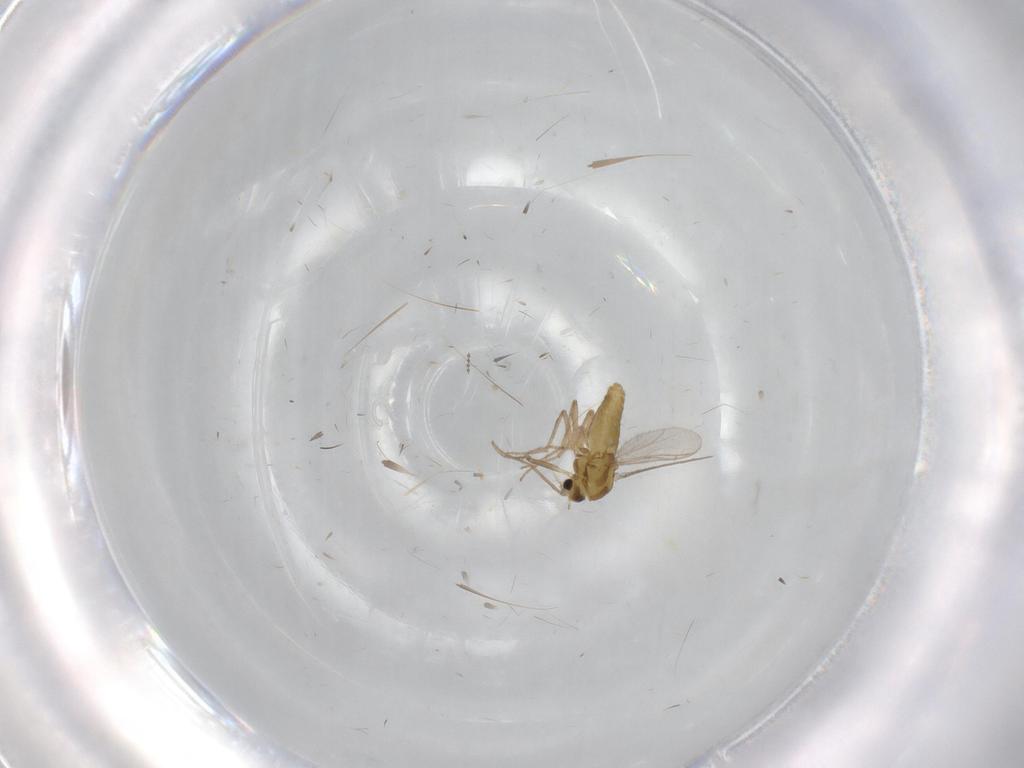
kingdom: Animalia
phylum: Arthropoda
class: Insecta
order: Diptera
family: Chironomidae
